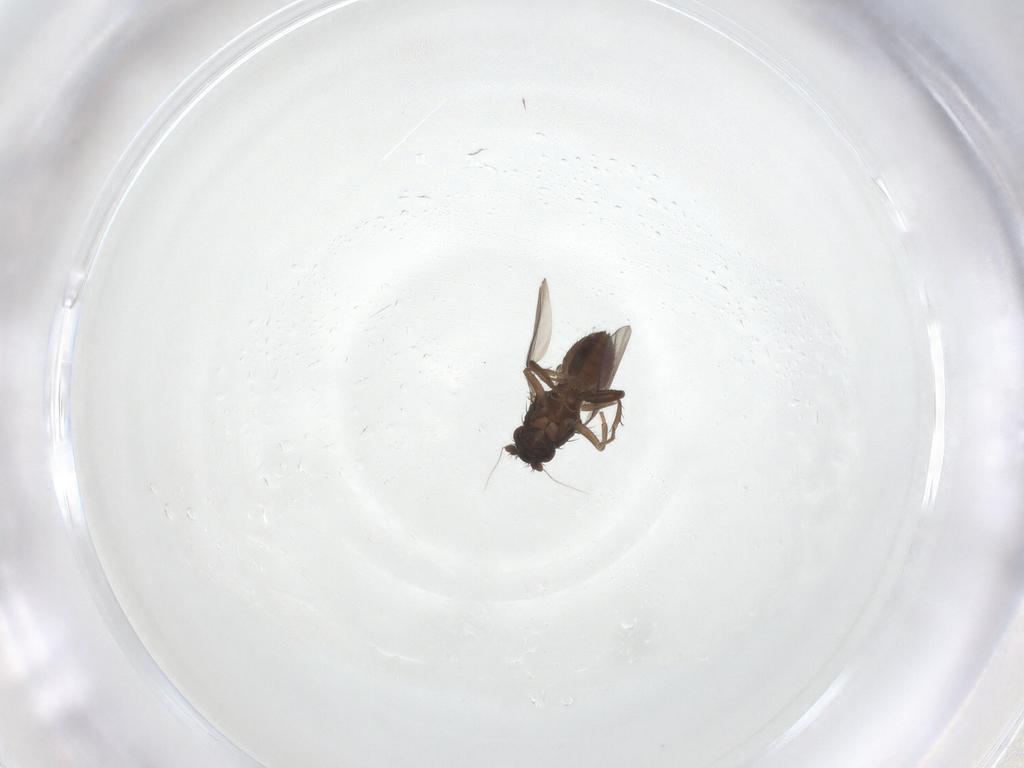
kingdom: Animalia
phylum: Arthropoda
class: Insecta
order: Diptera
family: Sphaeroceridae
